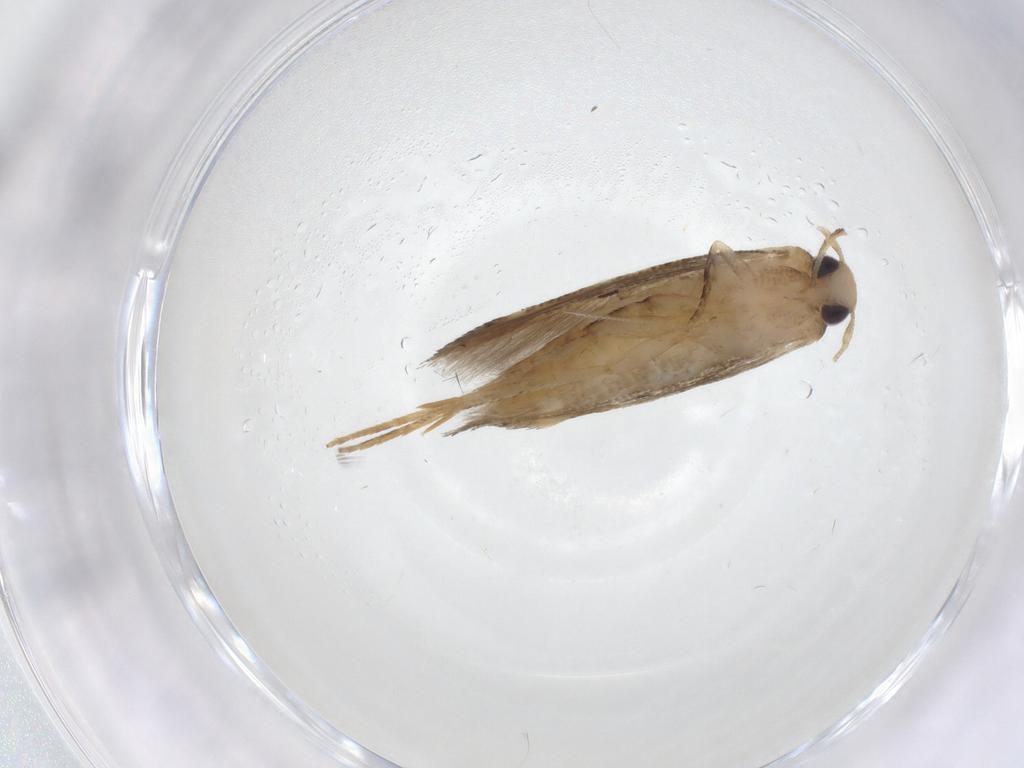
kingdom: Animalia
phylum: Arthropoda
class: Insecta
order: Lepidoptera
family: Gelechiidae
